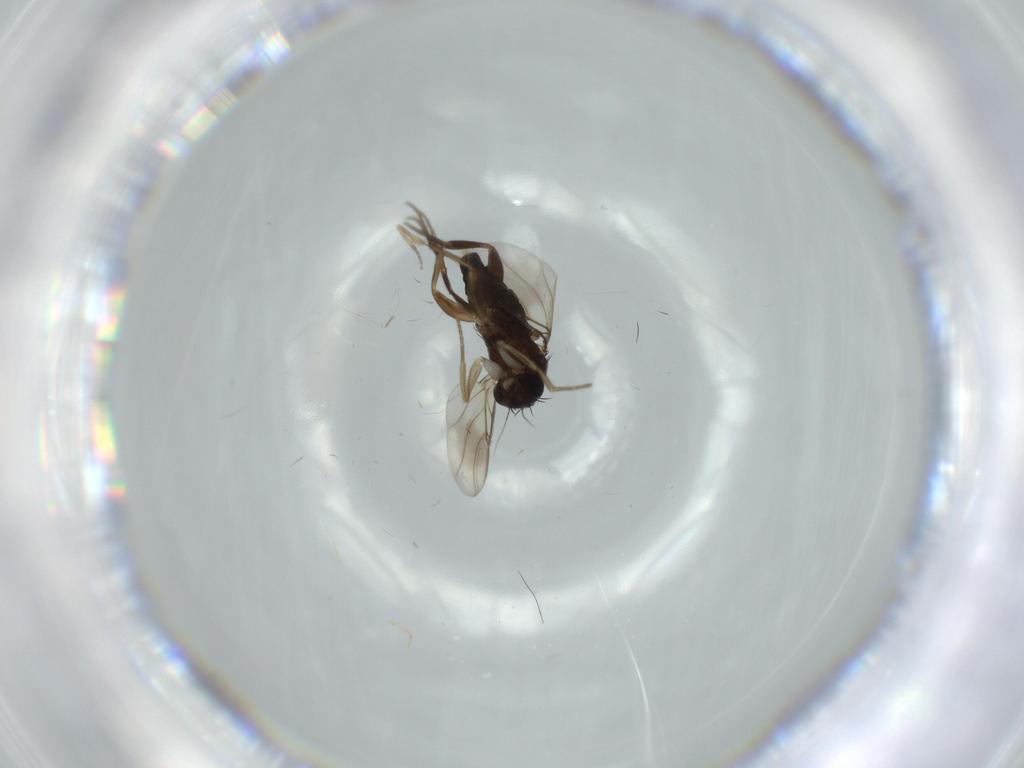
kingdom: Animalia
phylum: Arthropoda
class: Insecta
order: Diptera
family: Phoridae
